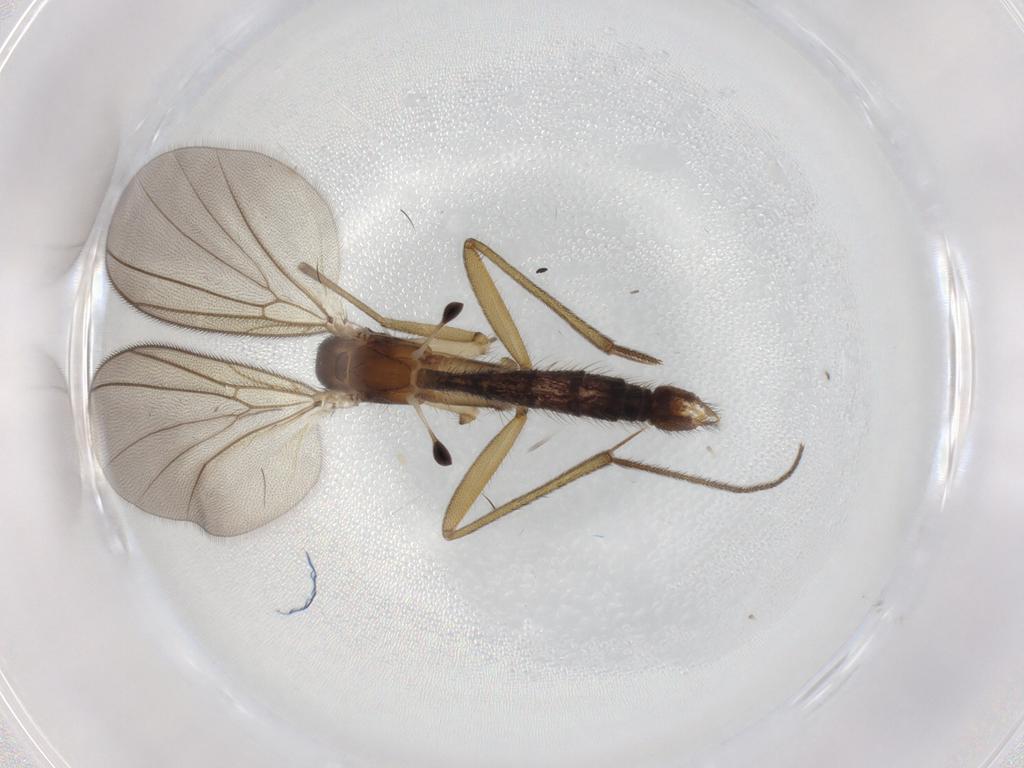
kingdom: Animalia
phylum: Arthropoda
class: Insecta
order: Diptera
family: Mycetophilidae
